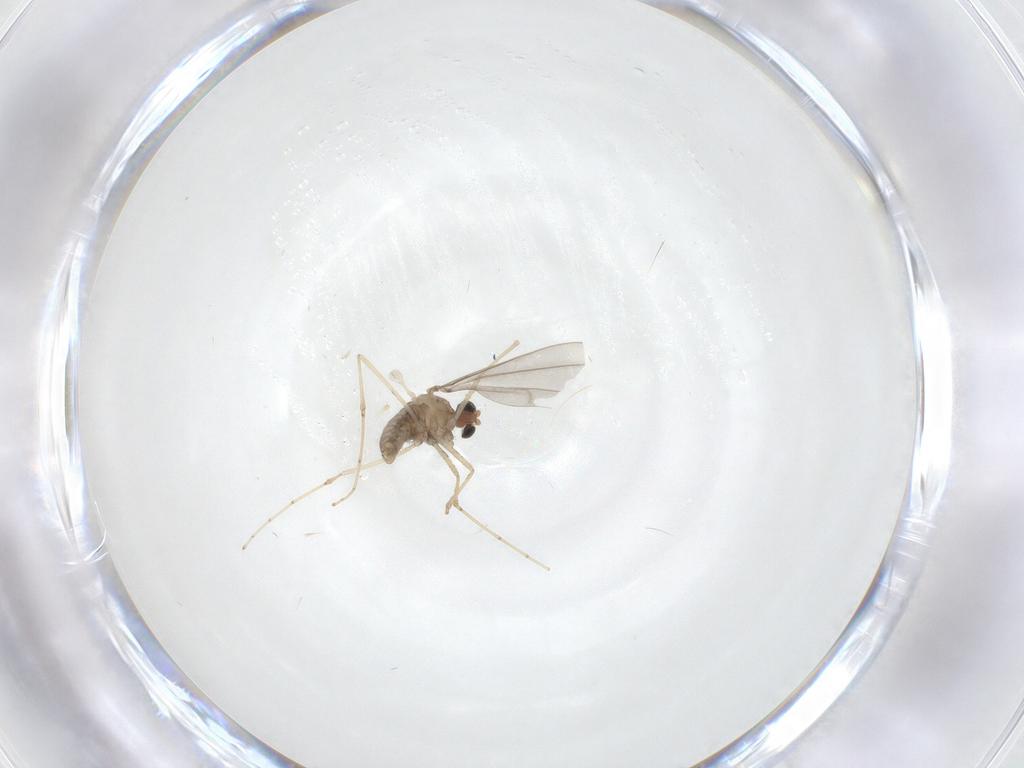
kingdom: Animalia
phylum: Arthropoda
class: Insecta
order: Diptera
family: Cecidomyiidae
